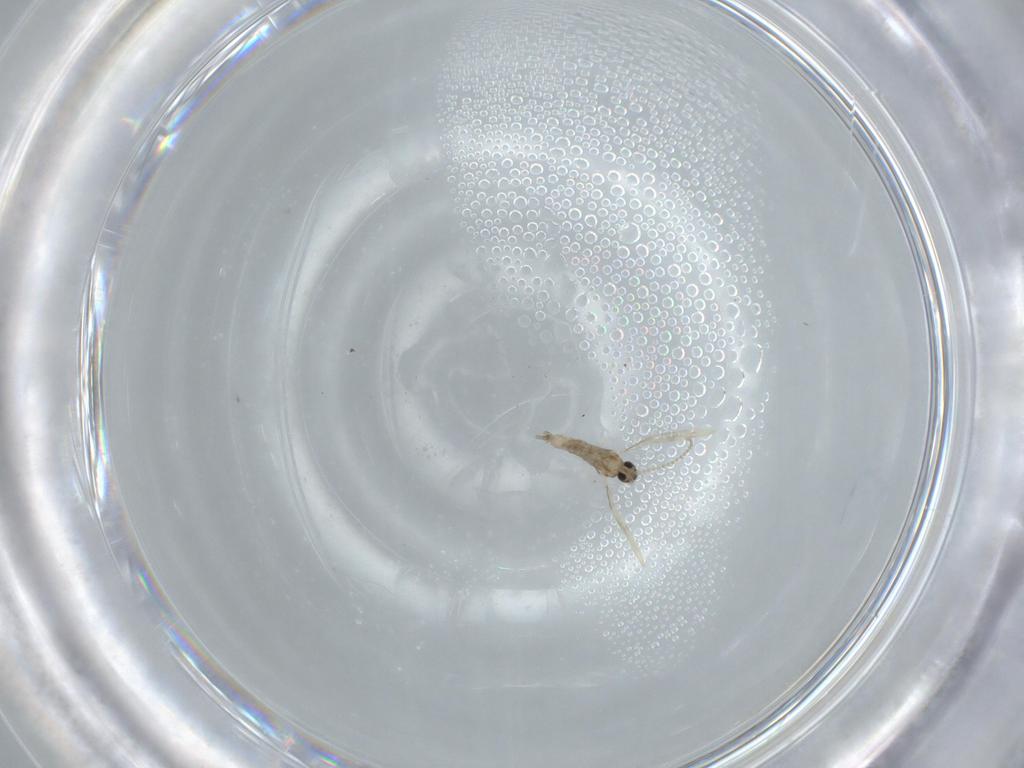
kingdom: Animalia
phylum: Arthropoda
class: Insecta
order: Diptera
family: Cecidomyiidae
